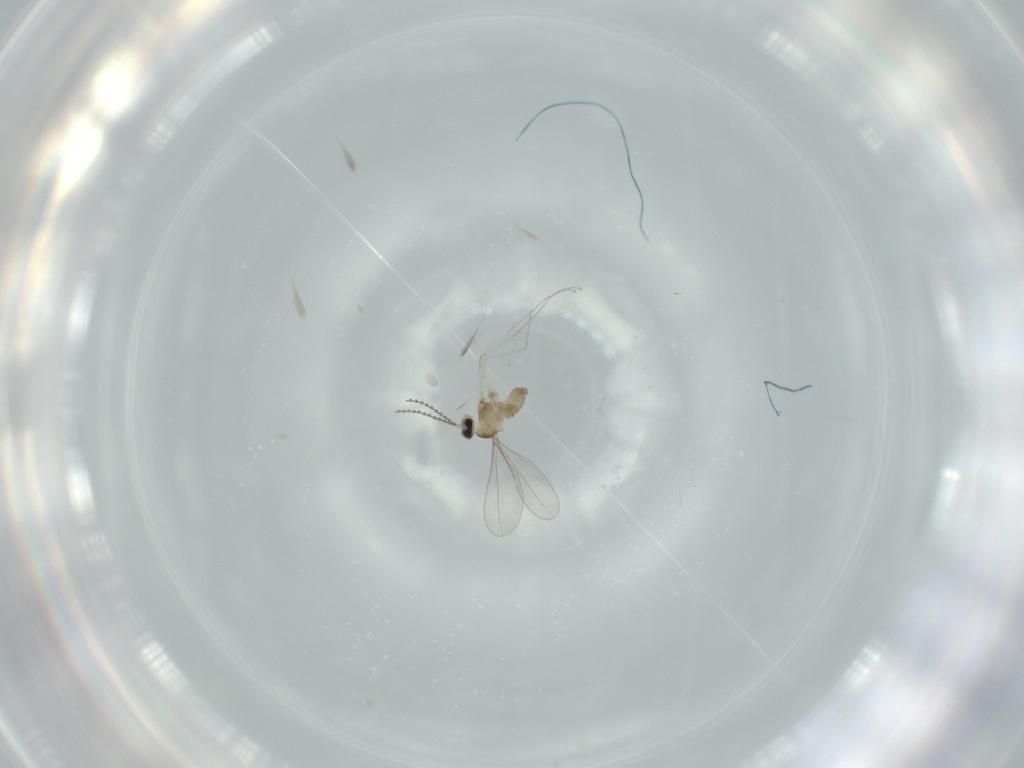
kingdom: Animalia
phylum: Arthropoda
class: Insecta
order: Diptera
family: Cecidomyiidae
